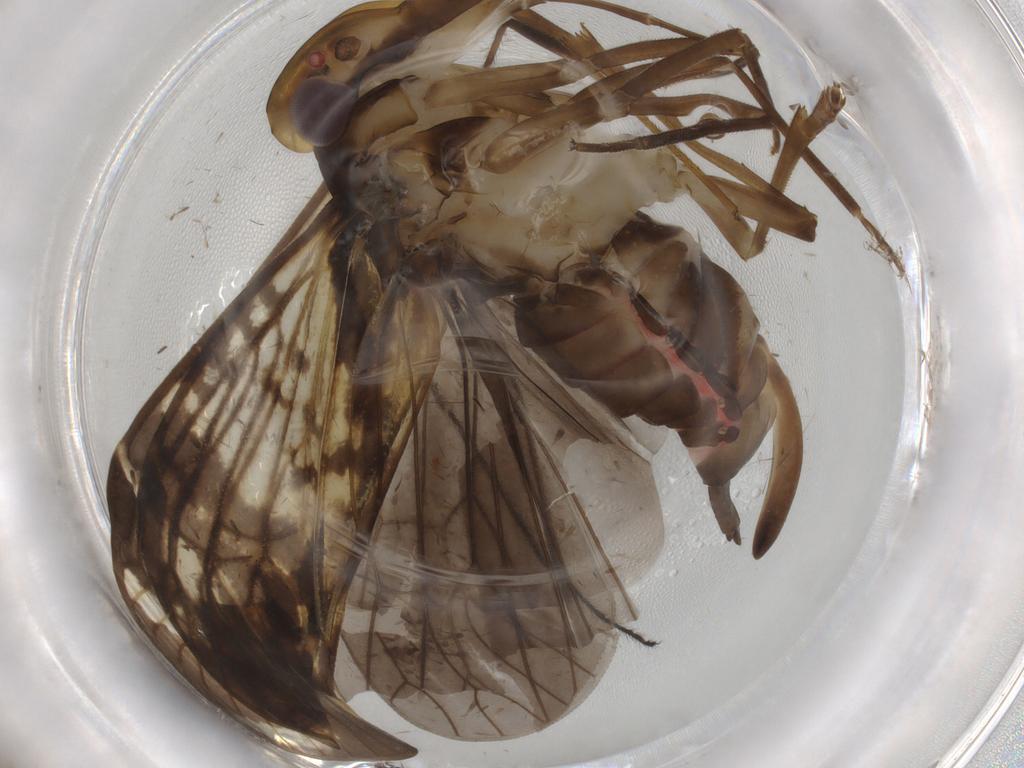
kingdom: Animalia
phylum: Arthropoda
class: Insecta
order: Hemiptera
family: Cixiidae
